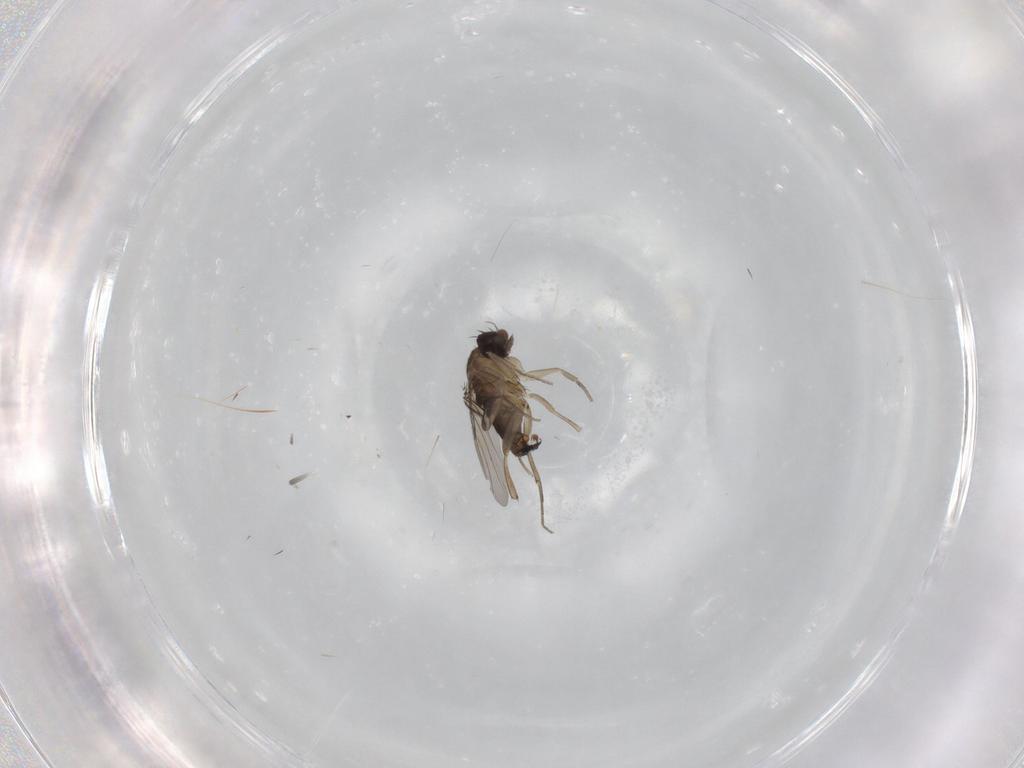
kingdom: Animalia
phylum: Arthropoda
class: Insecta
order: Diptera
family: Phoridae
